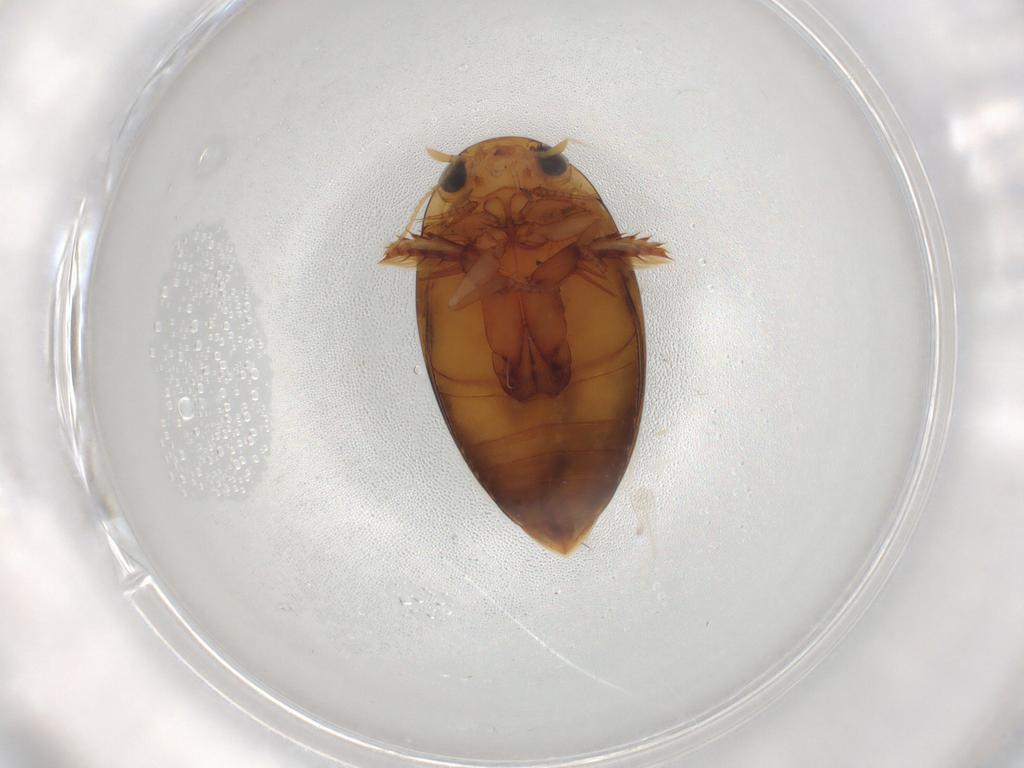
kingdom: Animalia
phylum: Arthropoda
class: Insecta
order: Coleoptera
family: Dytiscidae
